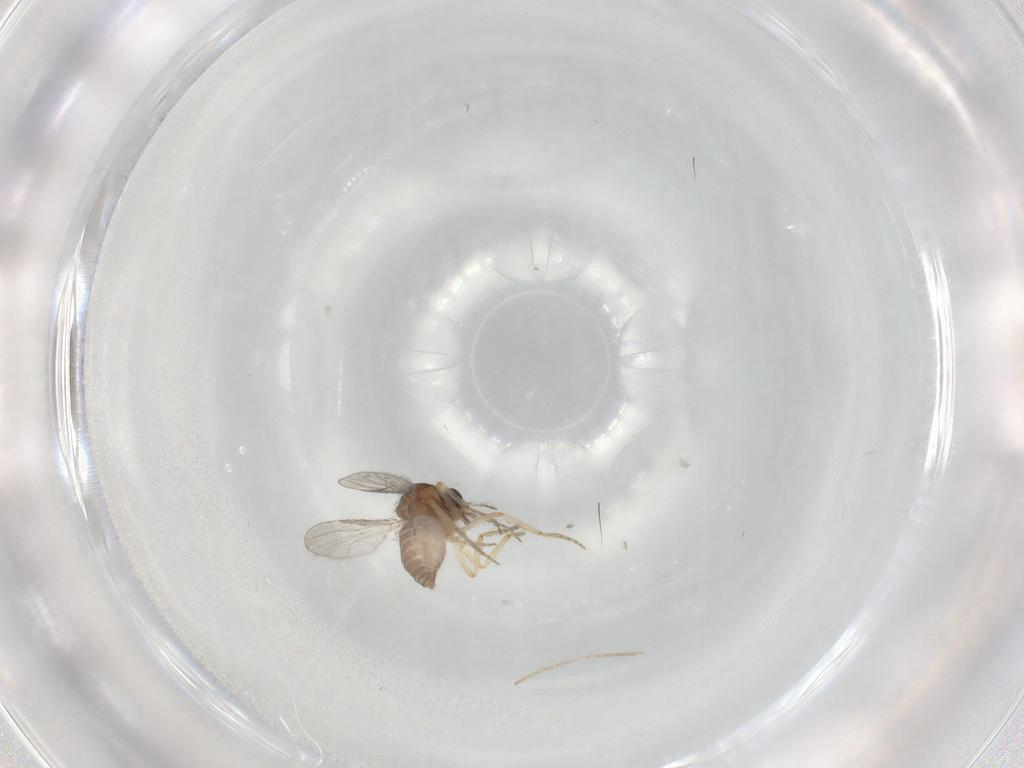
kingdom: Animalia
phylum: Arthropoda
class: Insecta
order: Diptera
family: Ceratopogonidae
